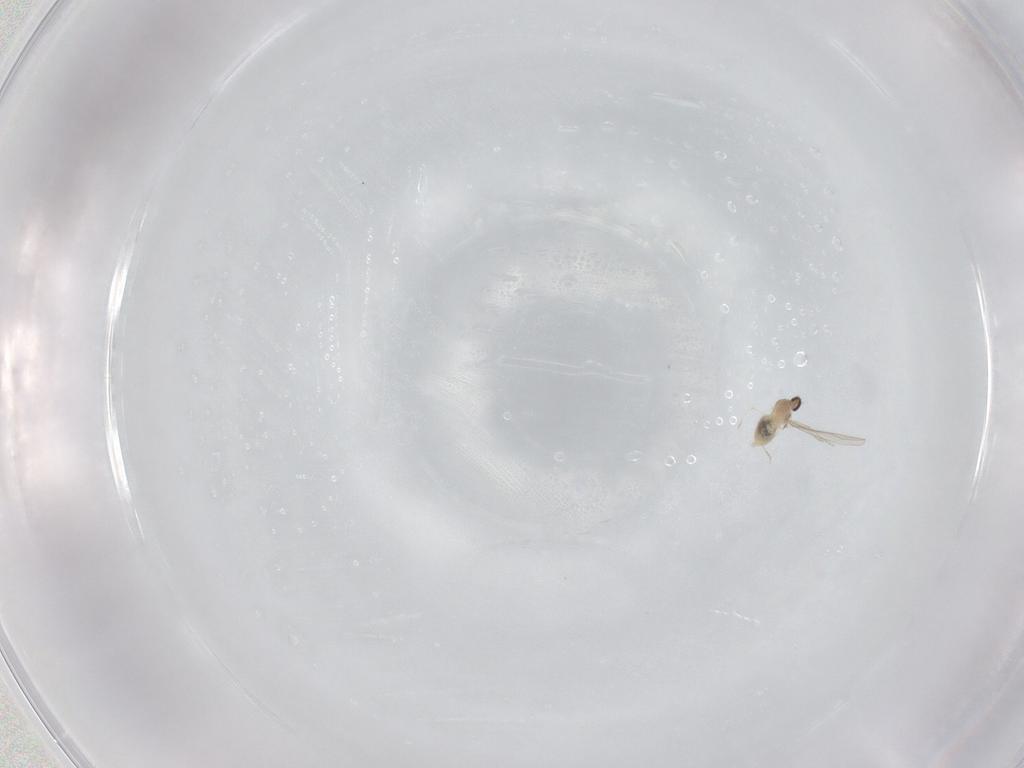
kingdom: Animalia
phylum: Arthropoda
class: Insecta
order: Diptera
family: Cecidomyiidae
